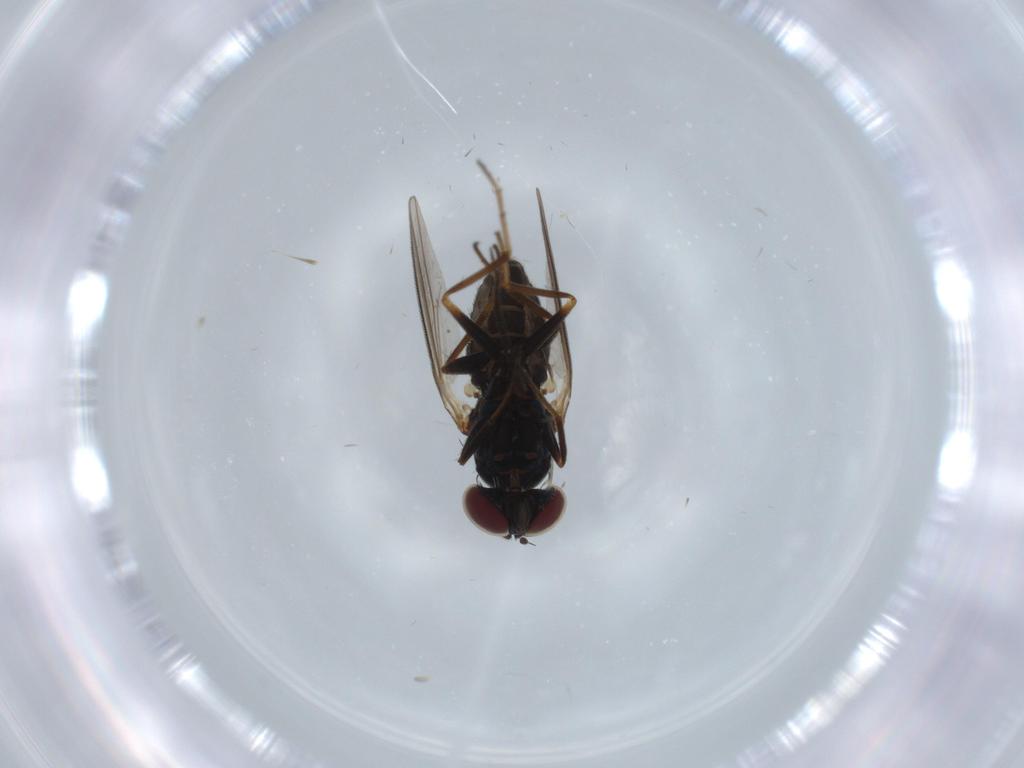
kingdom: Animalia
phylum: Arthropoda
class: Insecta
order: Diptera
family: Dolichopodidae
